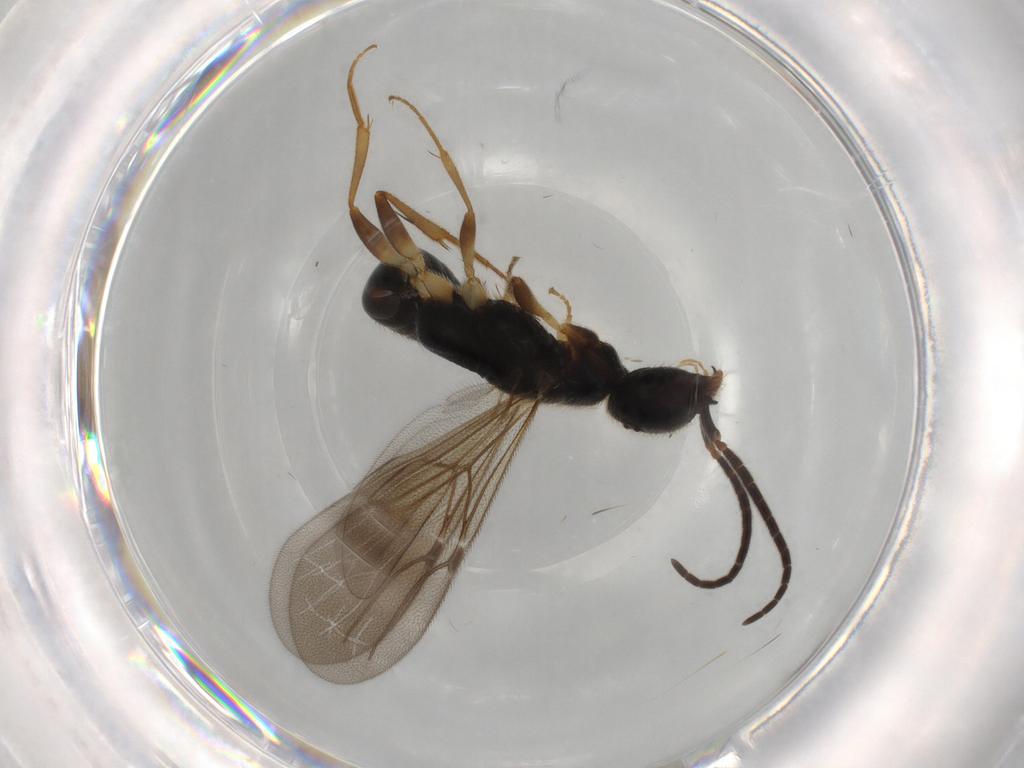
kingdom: Animalia
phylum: Arthropoda
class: Insecta
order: Hymenoptera
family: Bethylidae
